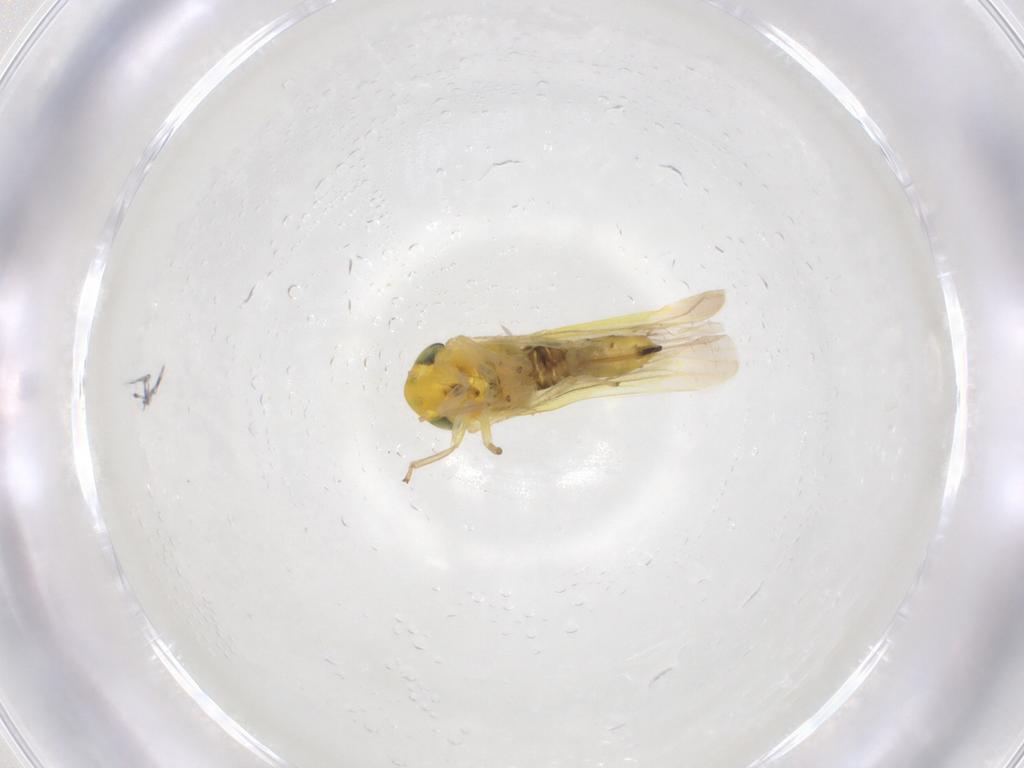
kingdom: Animalia
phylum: Arthropoda
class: Insecta
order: Hemiptera
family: Cicadellidae
